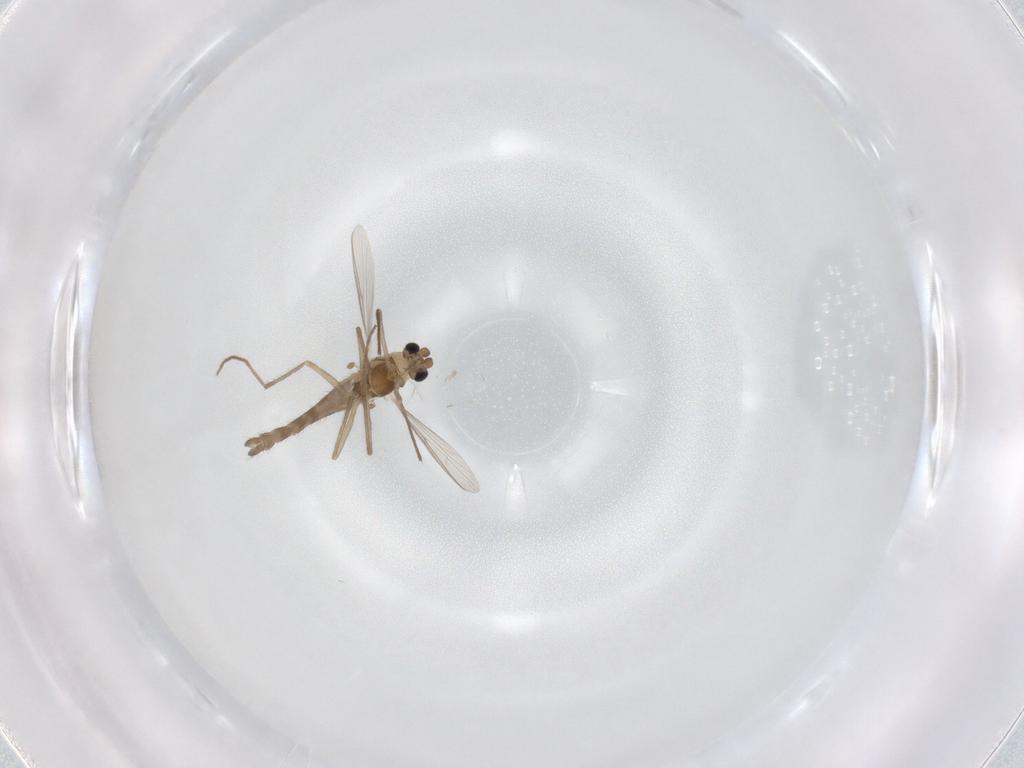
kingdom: Animalia
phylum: Arthropoda
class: Insecta
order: Diptera
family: Chironomidae
